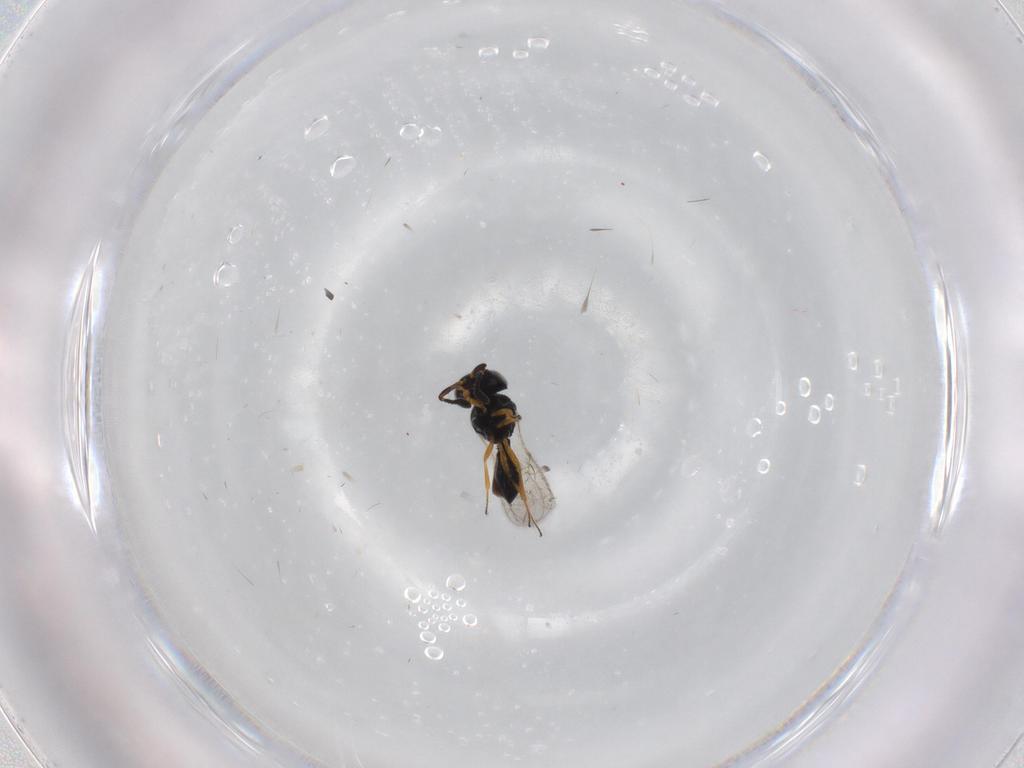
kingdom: Animalia
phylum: Arthropoda
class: Insecta
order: Hymenoptera
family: Scelionidae
